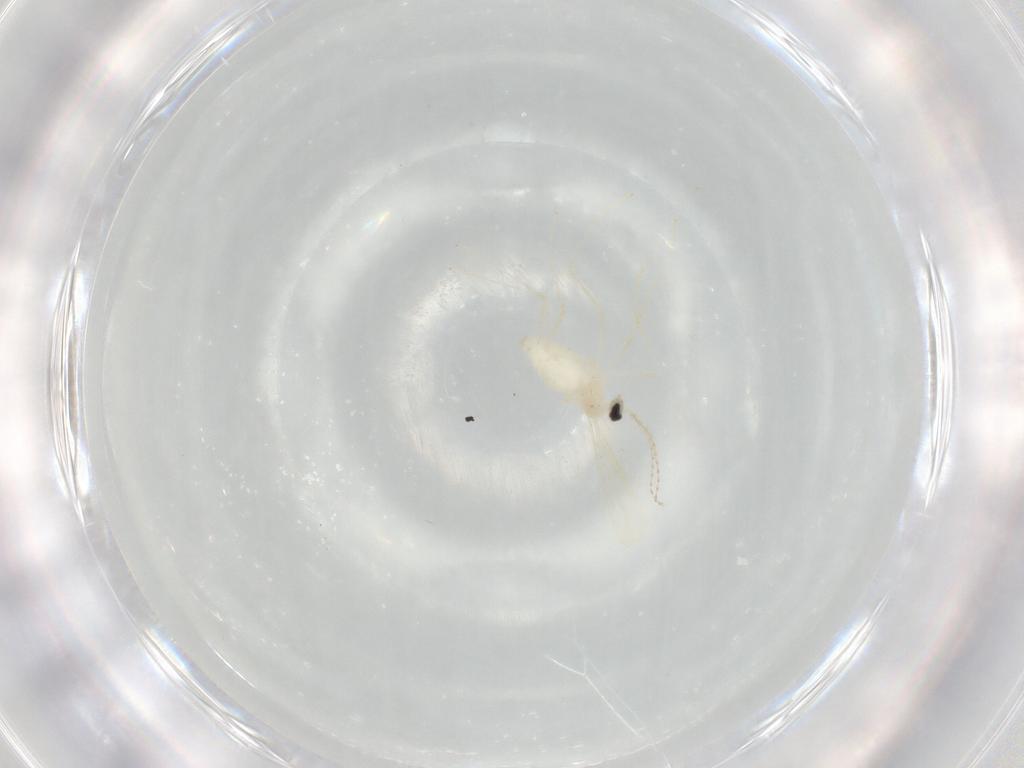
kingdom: Animalia
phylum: Arthropoda
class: Insecta
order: Diptera
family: Cecidomyiidae
